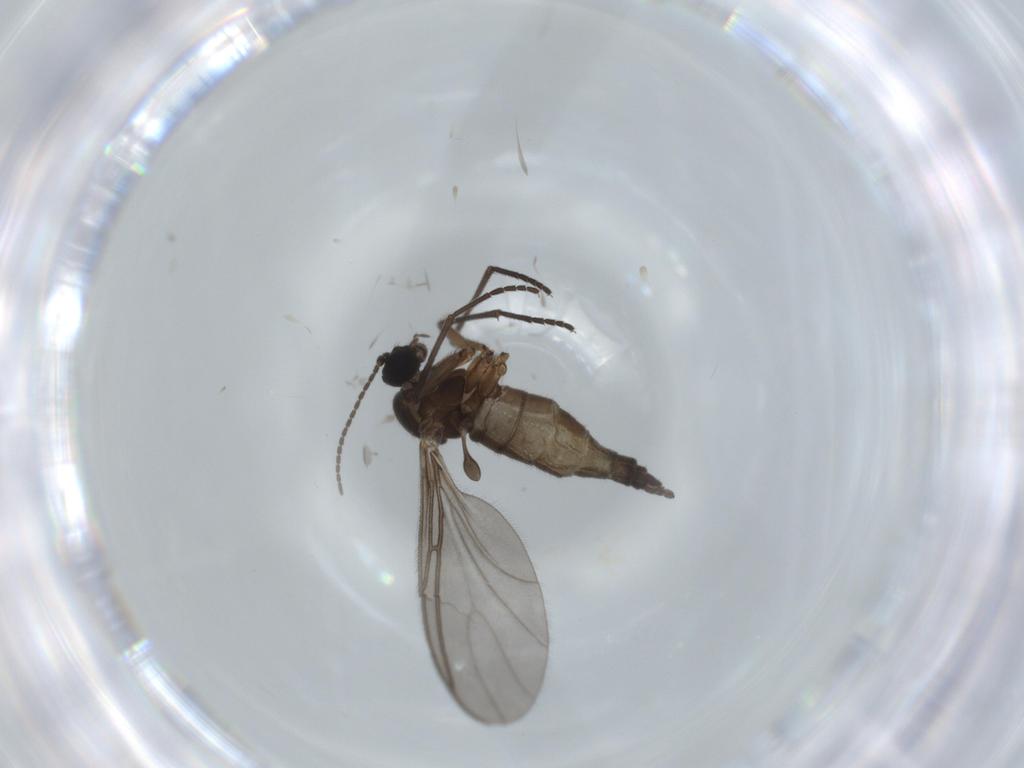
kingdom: Animalia
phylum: Arthropoda
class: Insecta
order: Diptera
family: Sciaridae
